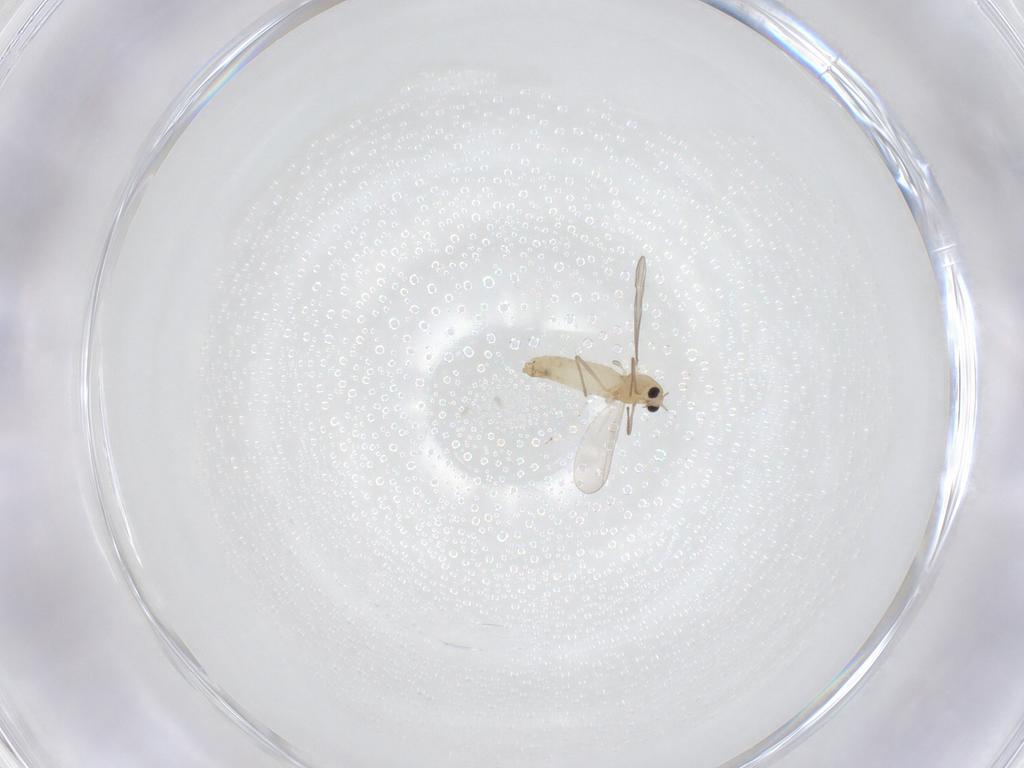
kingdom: Animalia
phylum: Arthropoda
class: Insecta
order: Diptera
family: Chironomidae
